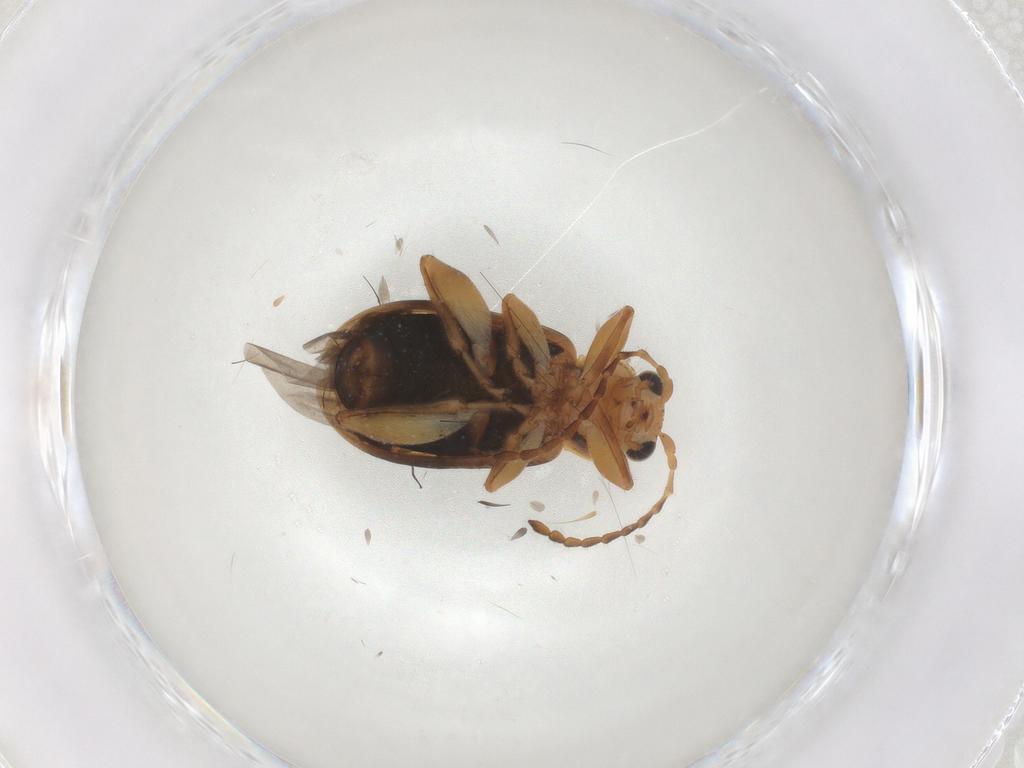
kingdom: Animalia
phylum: Arthropoda
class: Insecta
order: Coleoptera
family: Chrysomelidae
